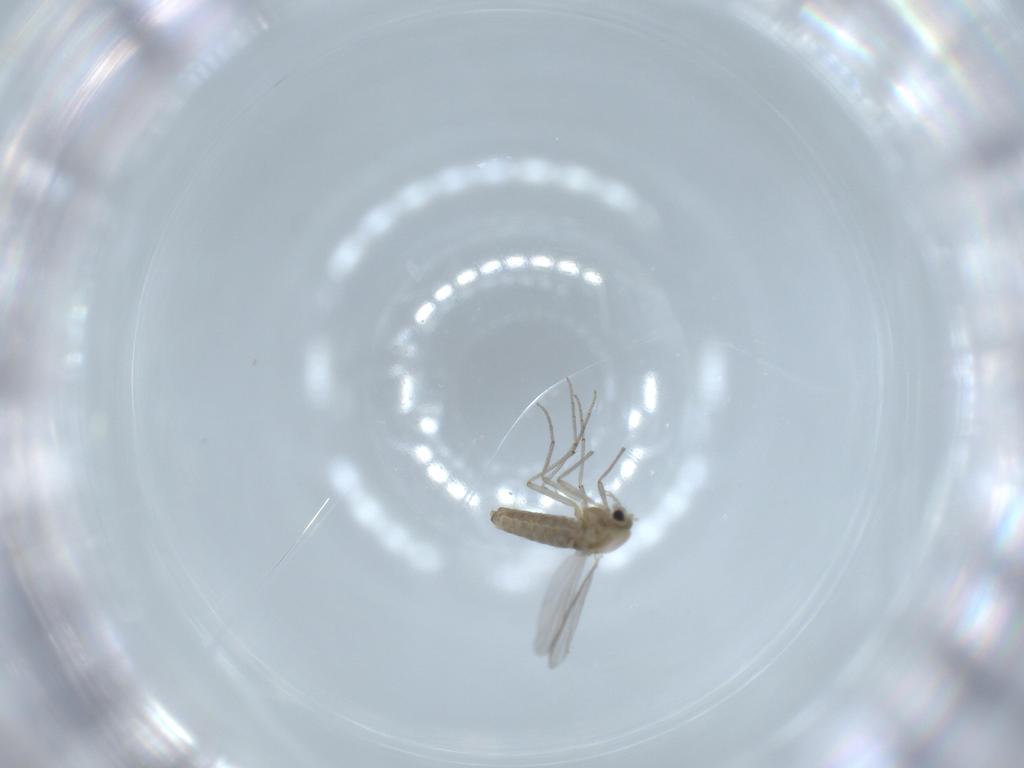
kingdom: Animalia
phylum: Arthropoda
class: Insecta
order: Diptera
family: Chironomidae
